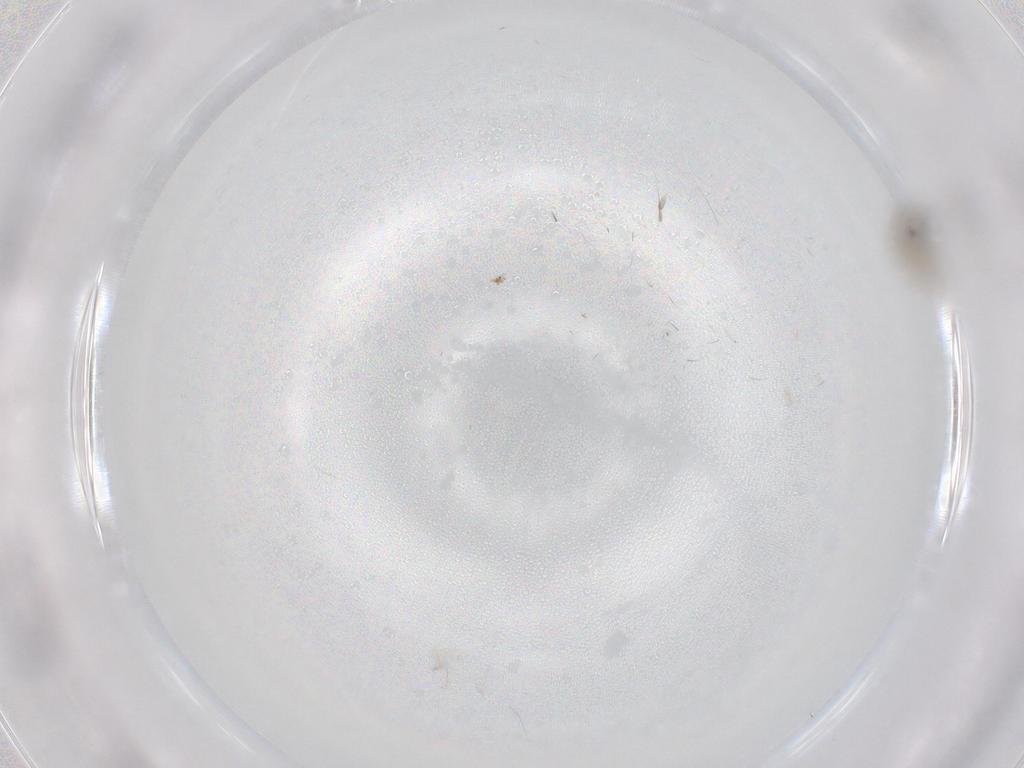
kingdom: Animalia
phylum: Arthropoda
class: Insecta
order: Diptera
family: Cecidomyiidae
